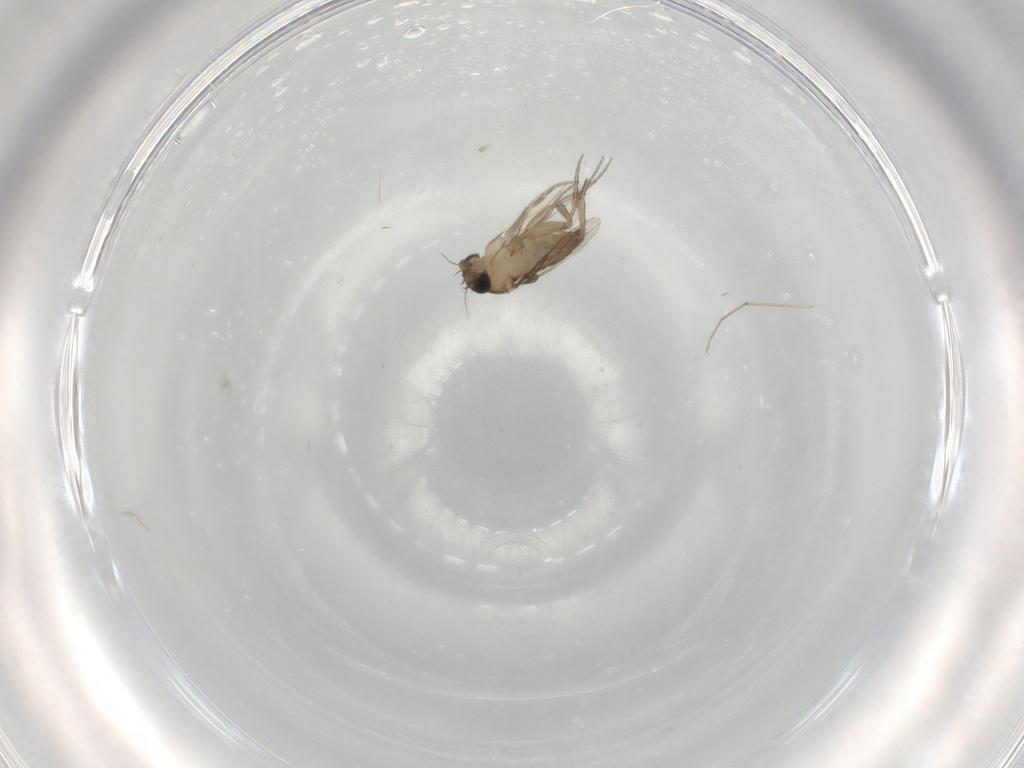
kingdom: Animalia
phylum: Arthropoda
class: Insecta
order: Diptera
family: Phoridae
